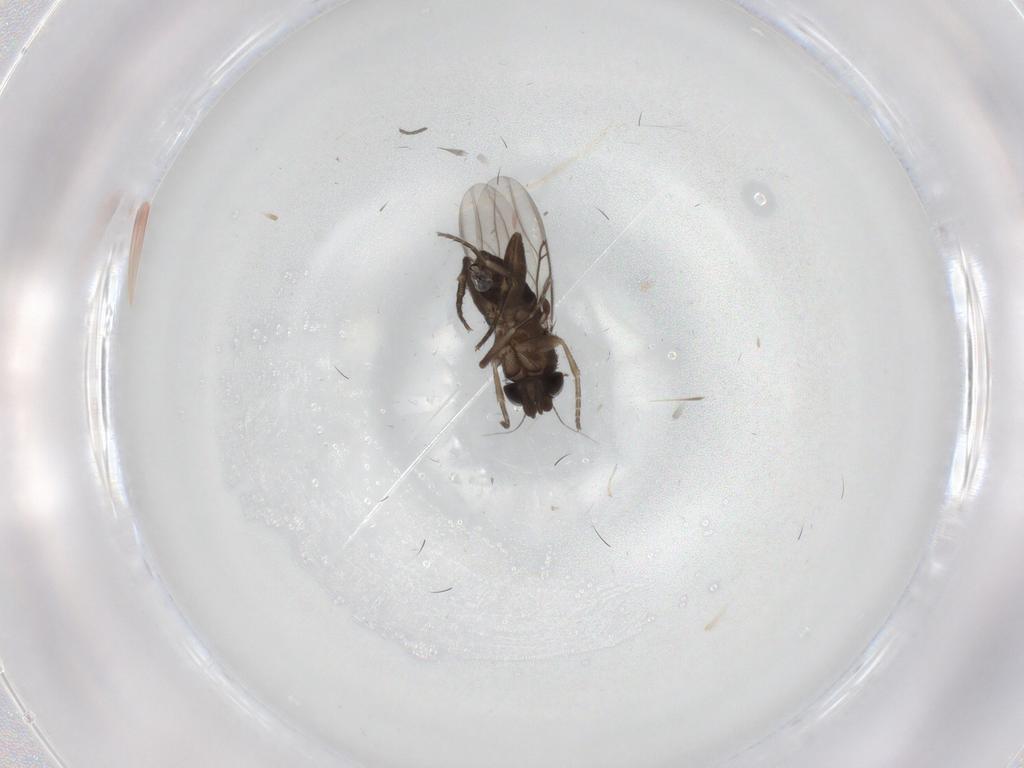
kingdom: Animalia
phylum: Arthropoda
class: Insecta
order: Diptera
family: Phoridae
